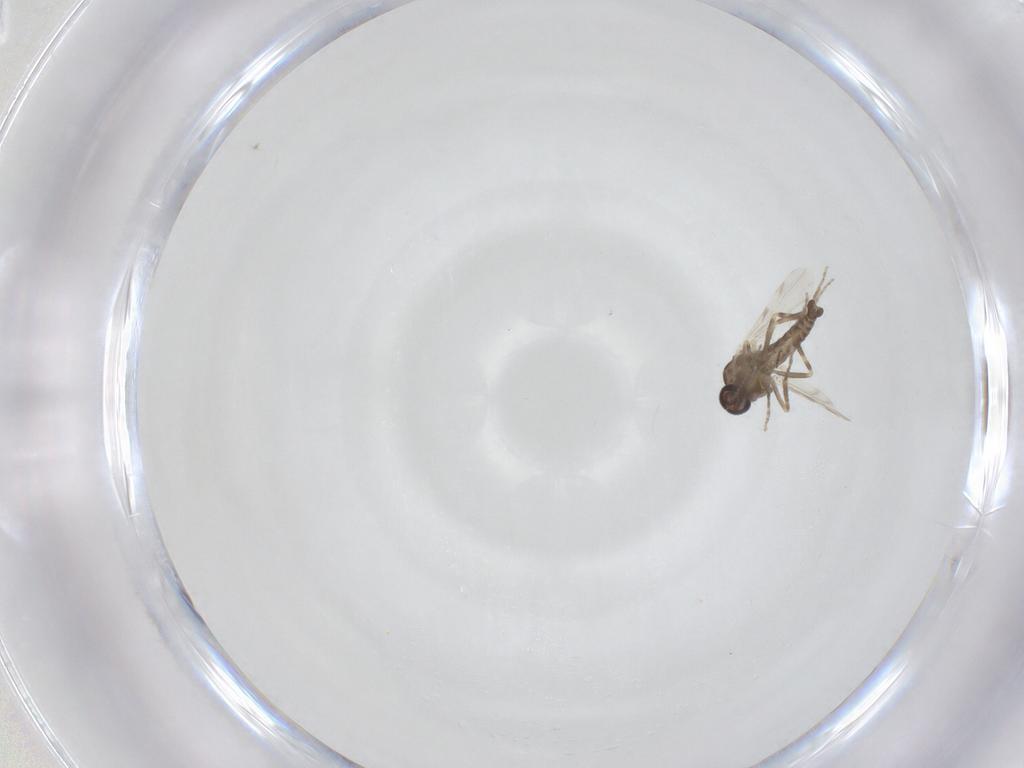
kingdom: Animalia
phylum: Arthropoda
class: Insecta
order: Diptera
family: Ceratopogonidae
